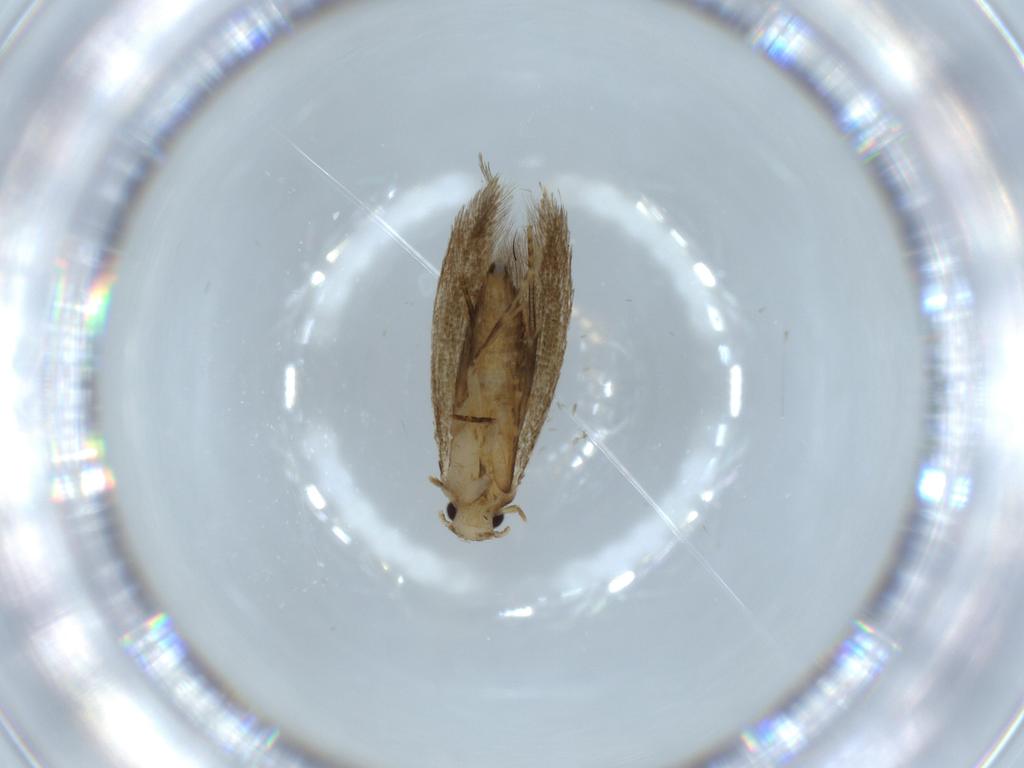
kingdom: Animalia
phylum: Arthropoda
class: Insecta
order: Lepidoptera
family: Tineidae
